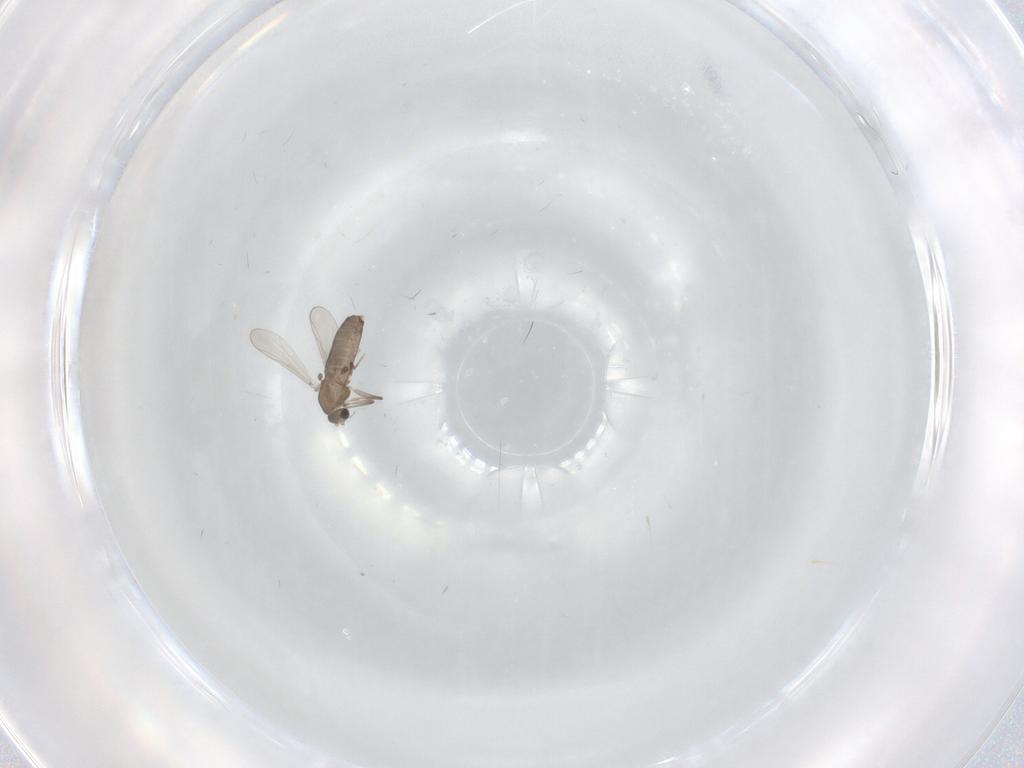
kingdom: Animalia
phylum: Arthropoda
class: Insecta
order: Diptera
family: Chironomidae
